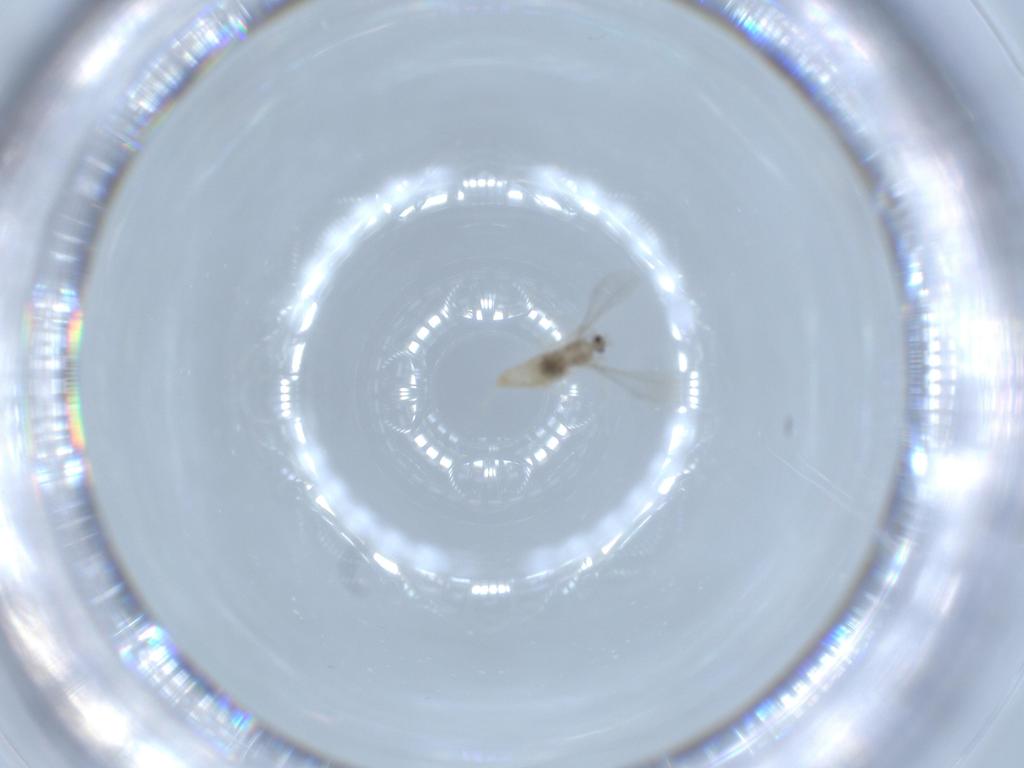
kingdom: Animalia
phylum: Arthropoda
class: Insecta
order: Diptera
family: Cecidomyiidae
